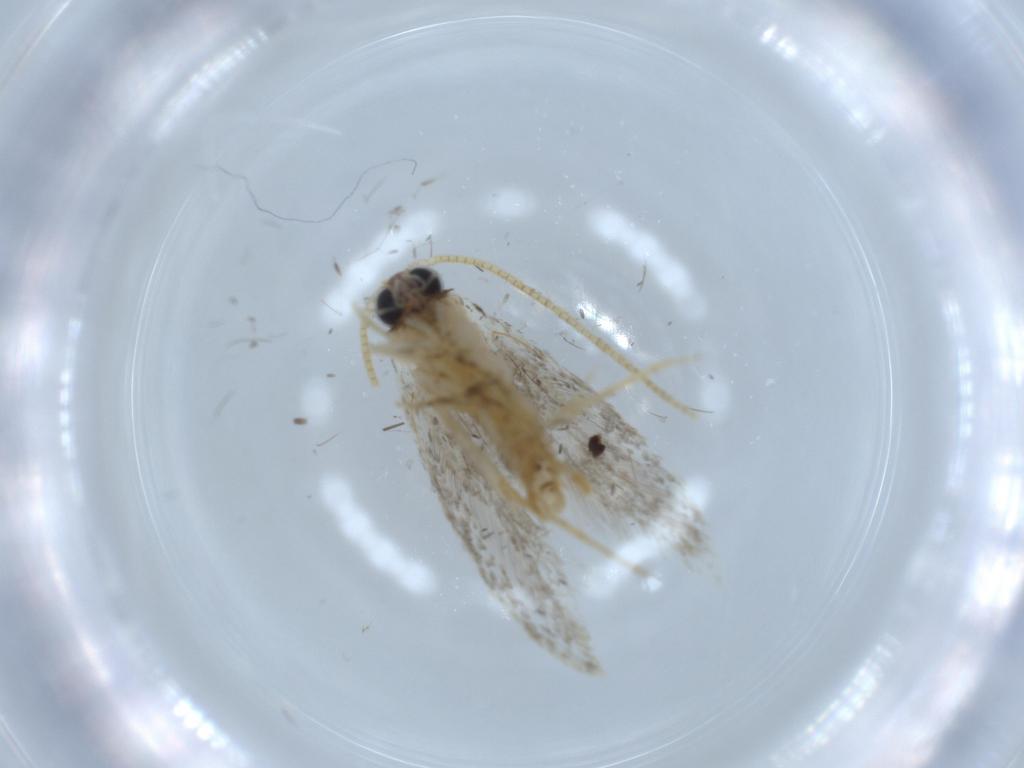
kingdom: Animalia
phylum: Arthropoda
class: Insecta
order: Lepidoptera
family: Tineidae
